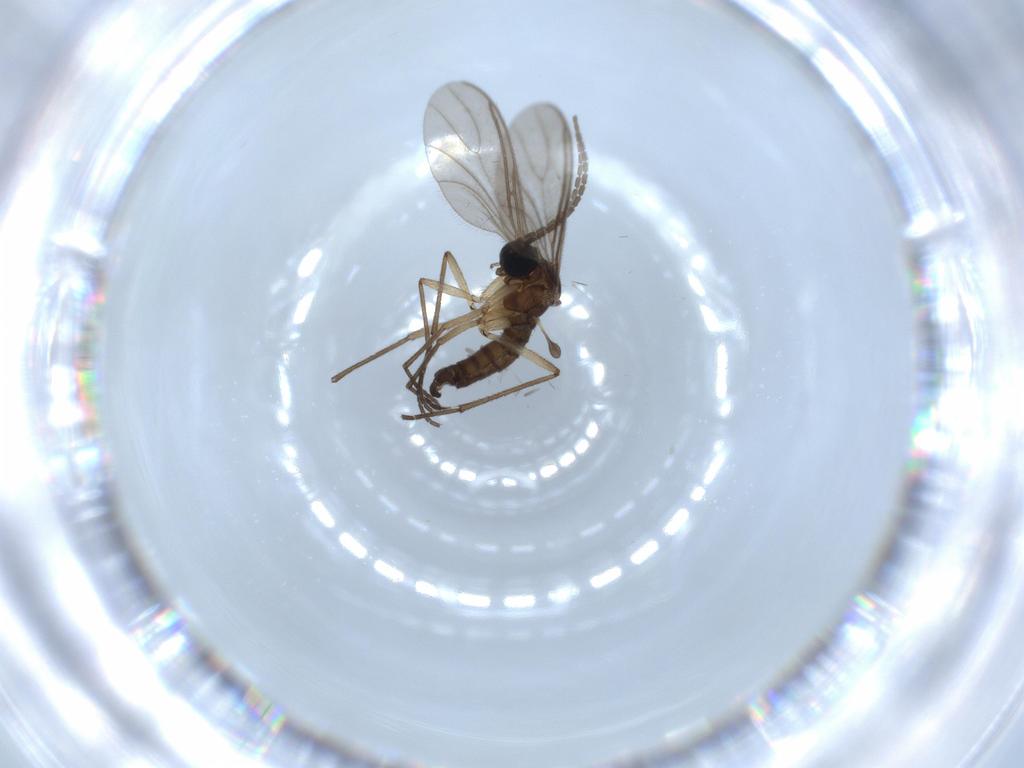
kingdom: Animalia
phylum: Arthropoda
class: Insecta
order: Diptera
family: Sciaridae
